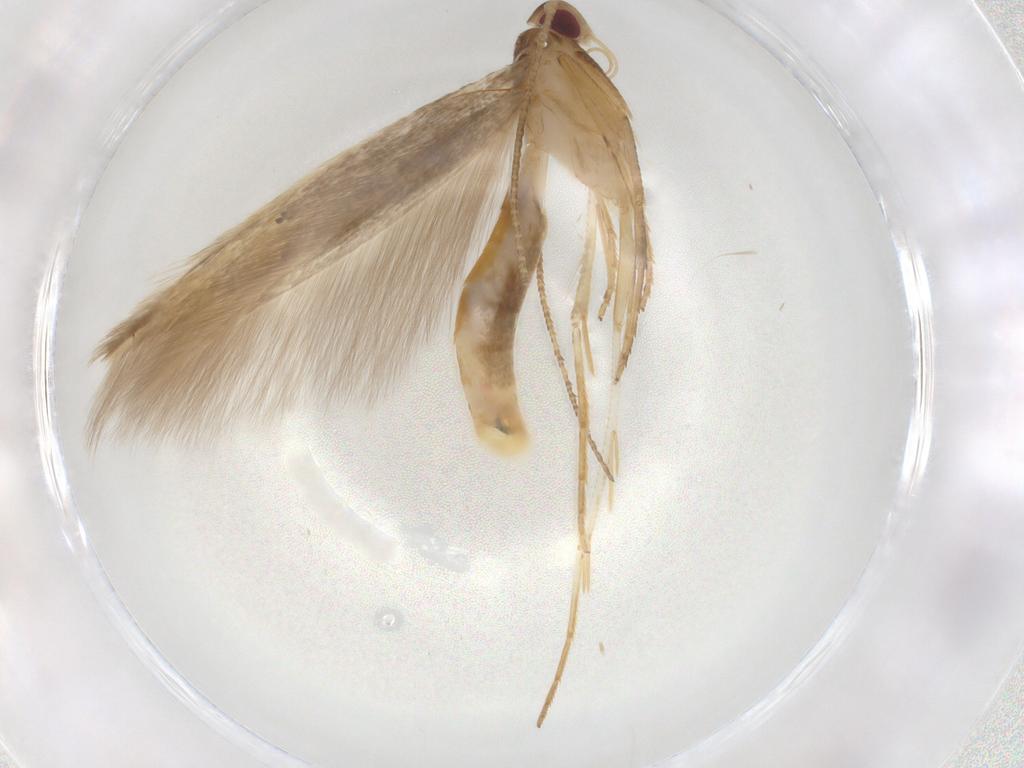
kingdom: Animalia
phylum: Arthropoda
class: Insecta
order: Lepidoptera
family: Cosmopterigidae
